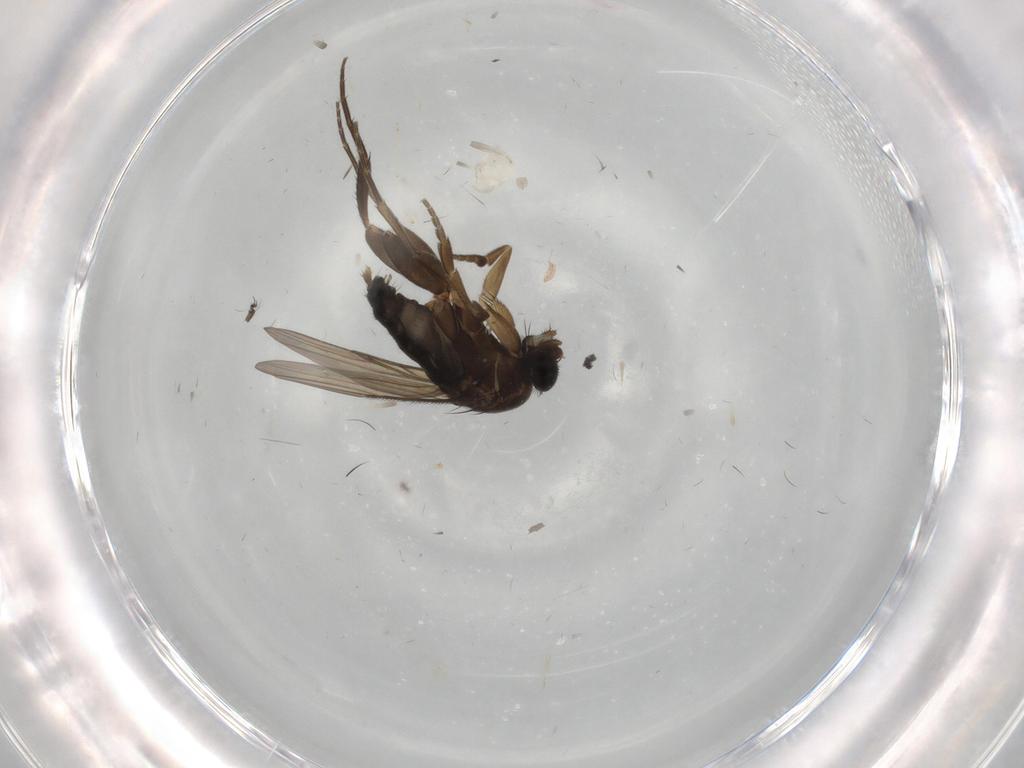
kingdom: Animalia
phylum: Arthropoda
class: Insecta
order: Diptera
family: Phoridae
